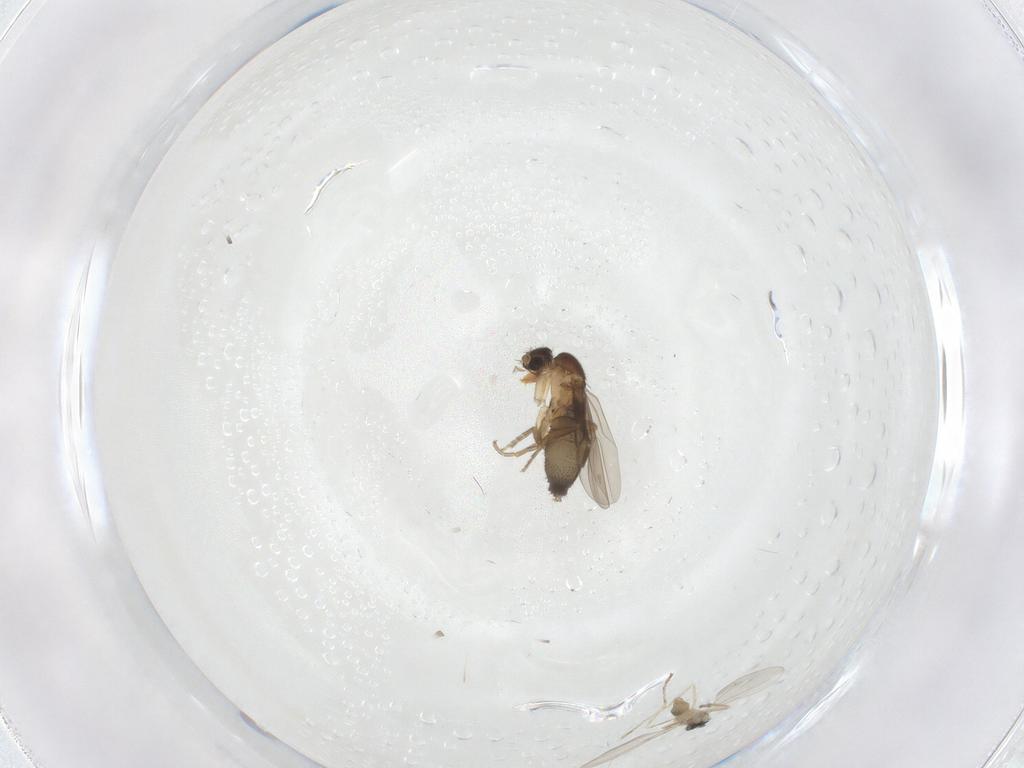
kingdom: Animalia
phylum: Arthropoda
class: Insecta
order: Diptera
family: Cecidomyiidae
